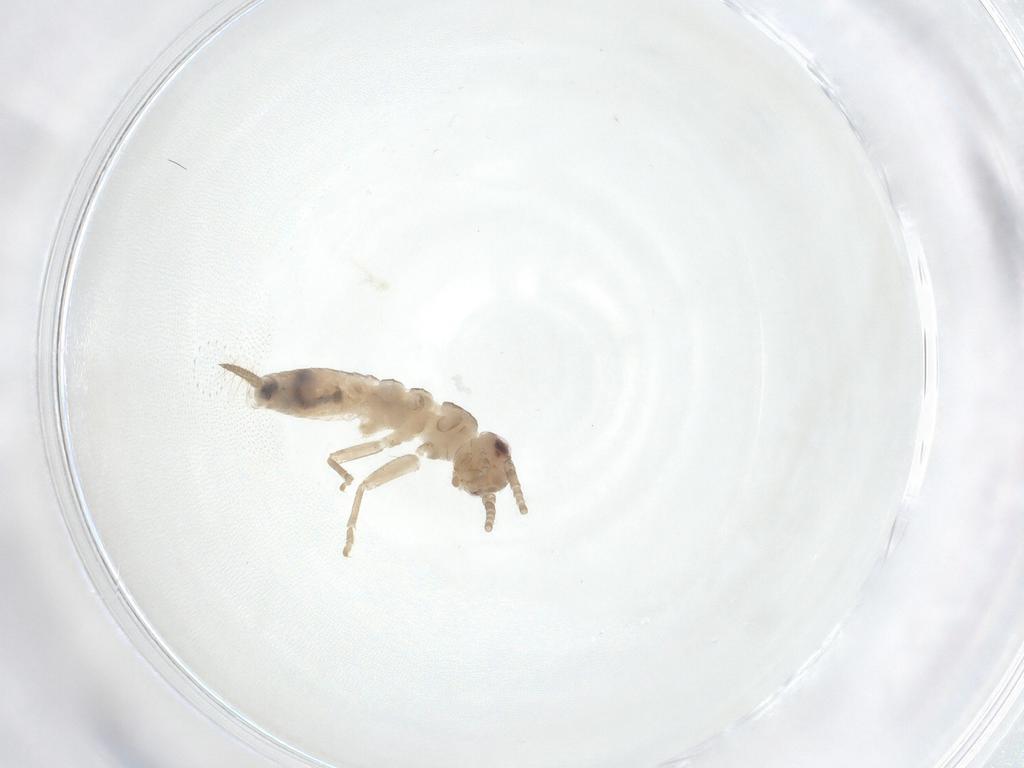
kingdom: Animalia
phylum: Arthropoda
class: Insecta
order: Orthoptera
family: Gryllidae
